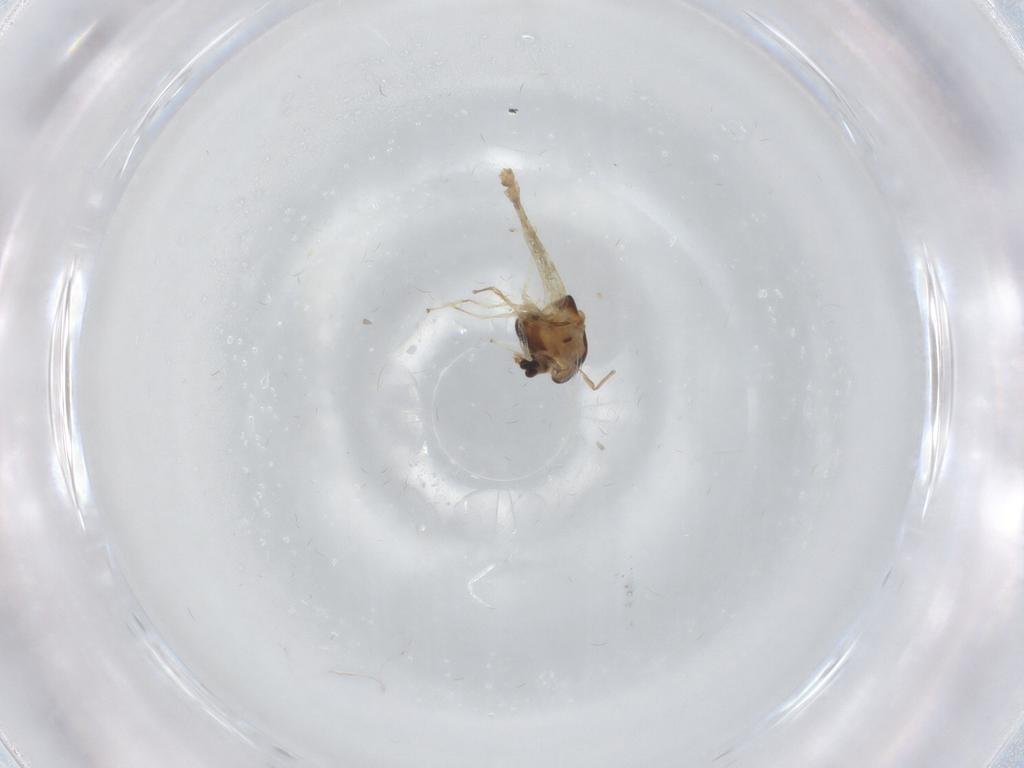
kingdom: Animalia
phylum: Arthropoda
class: Insecta
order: Diptera
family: Chironomidae
